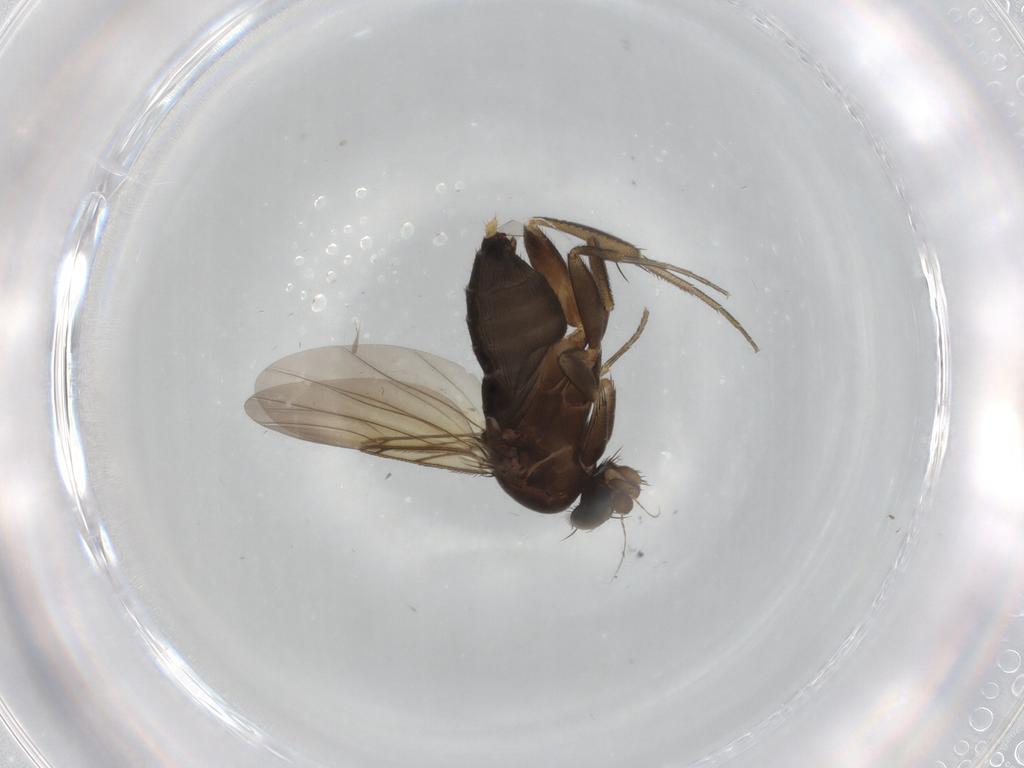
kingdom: Animalia
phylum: Arthropoda
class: Insecta
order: Diptera
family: Phoridae
